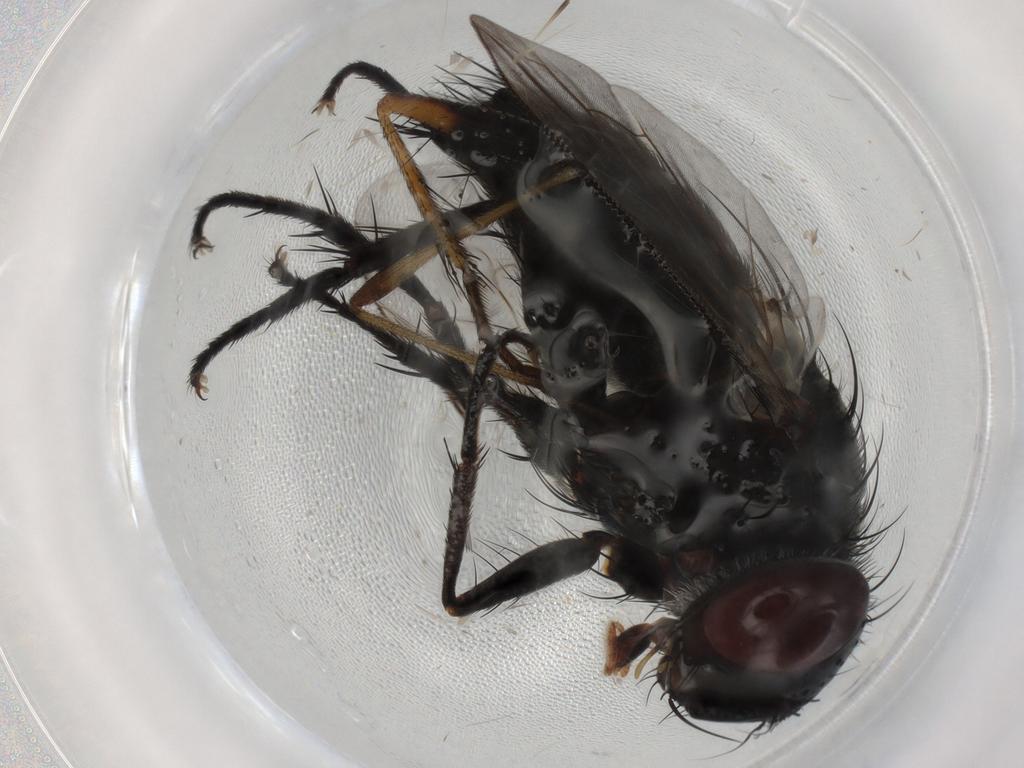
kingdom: Animalia
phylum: Arthropoda
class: Insecta
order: Diptera
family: Tachinidae
